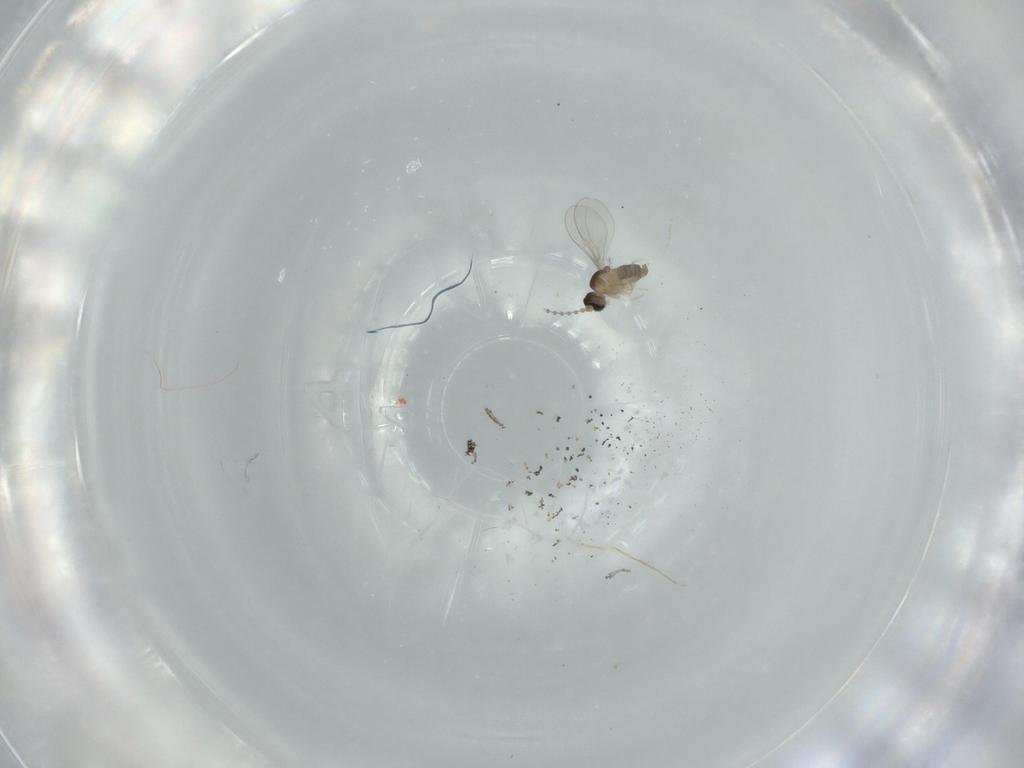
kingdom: Animalia
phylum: Arthropoda
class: Insecta
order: Diptera
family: Cecidomyiidae
